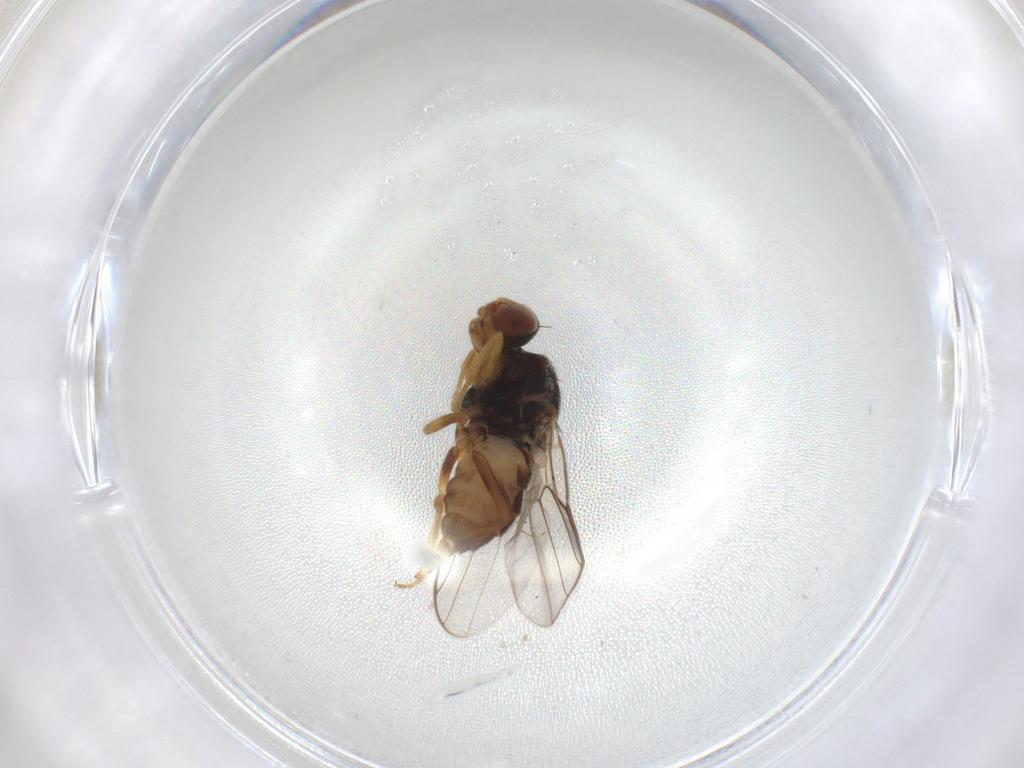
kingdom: Animalia
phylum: Arthropoda
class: Insecta
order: Diptera
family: Chloropidae
